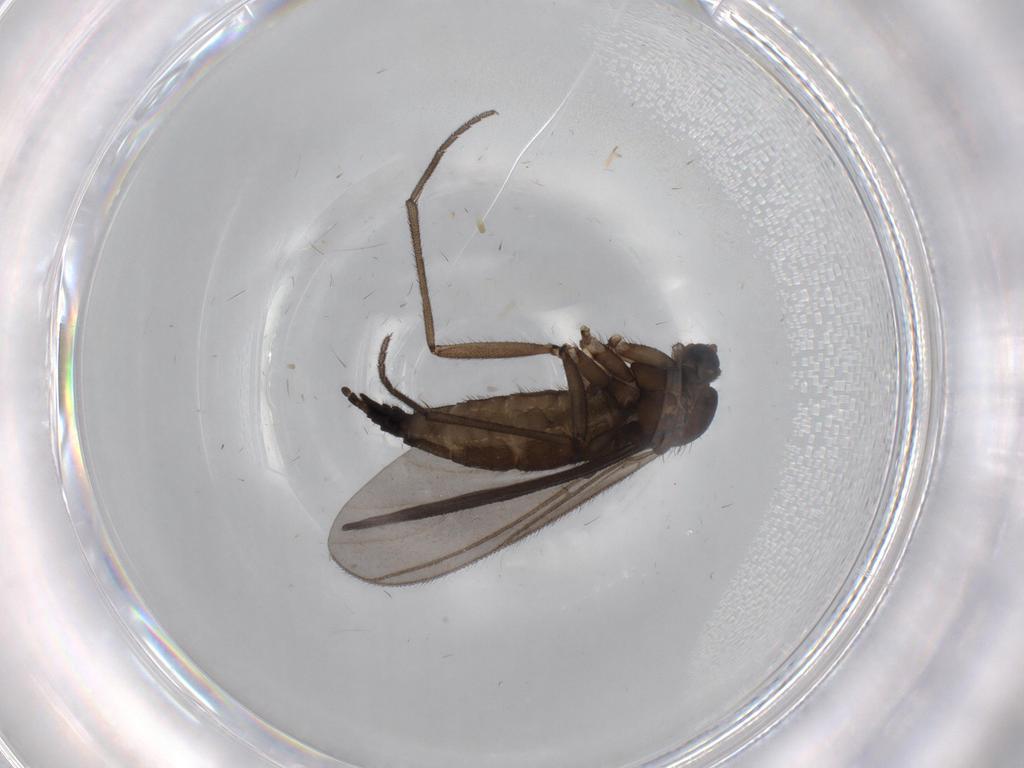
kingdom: Animalia
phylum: Arthropoda
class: Insecta
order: Diptera
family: Sciaridae
